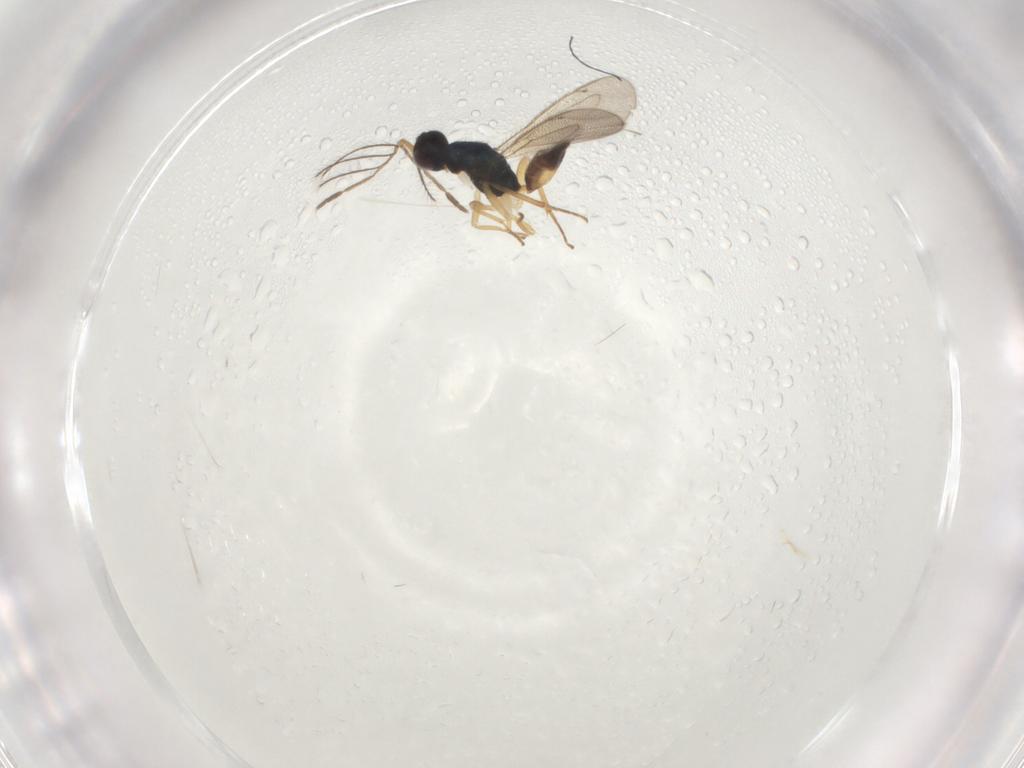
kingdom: Animalia
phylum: Arthropoda
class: Insecta
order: Hymenoptera
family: Eulophidae
